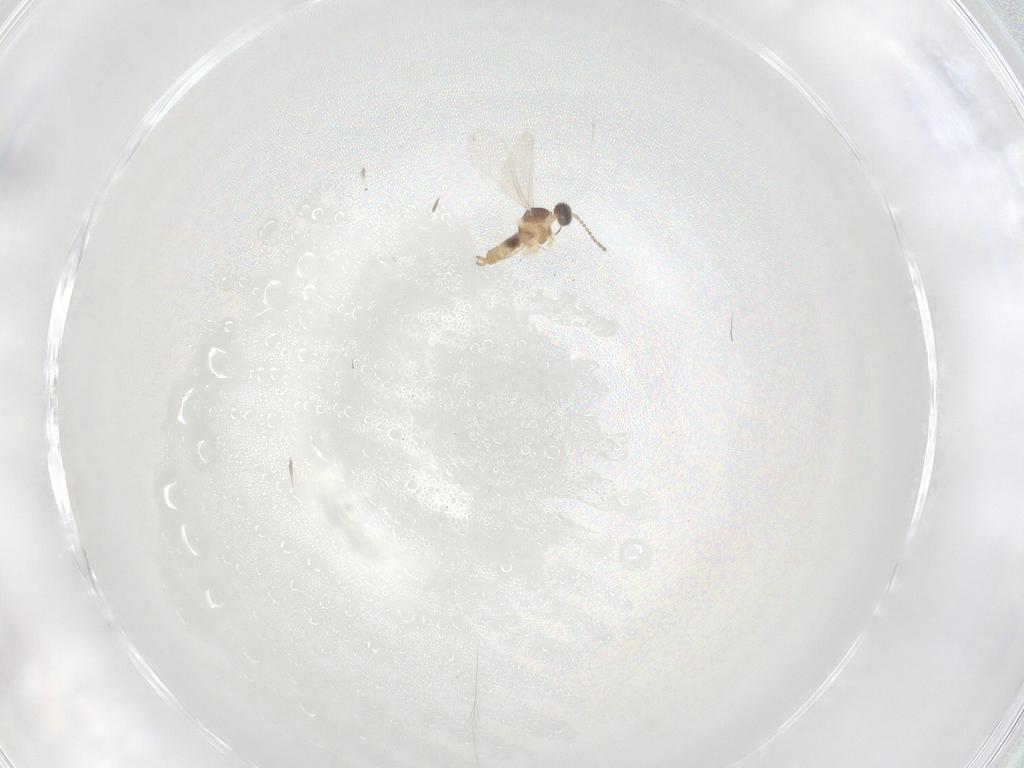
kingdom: Animalia
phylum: Arthropoda
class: Insecta
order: Diptera
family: Cecidomyiidae
